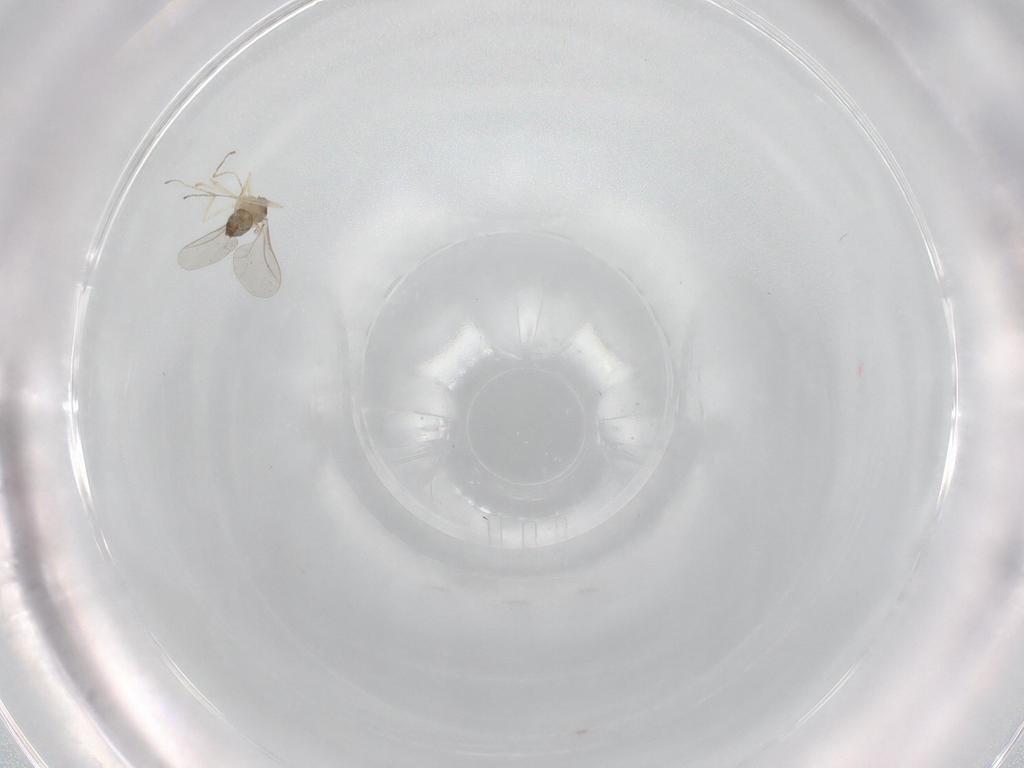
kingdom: Animalia
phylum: Arthropoda
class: Insecta
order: Diptera
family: Cecidomyiidae
